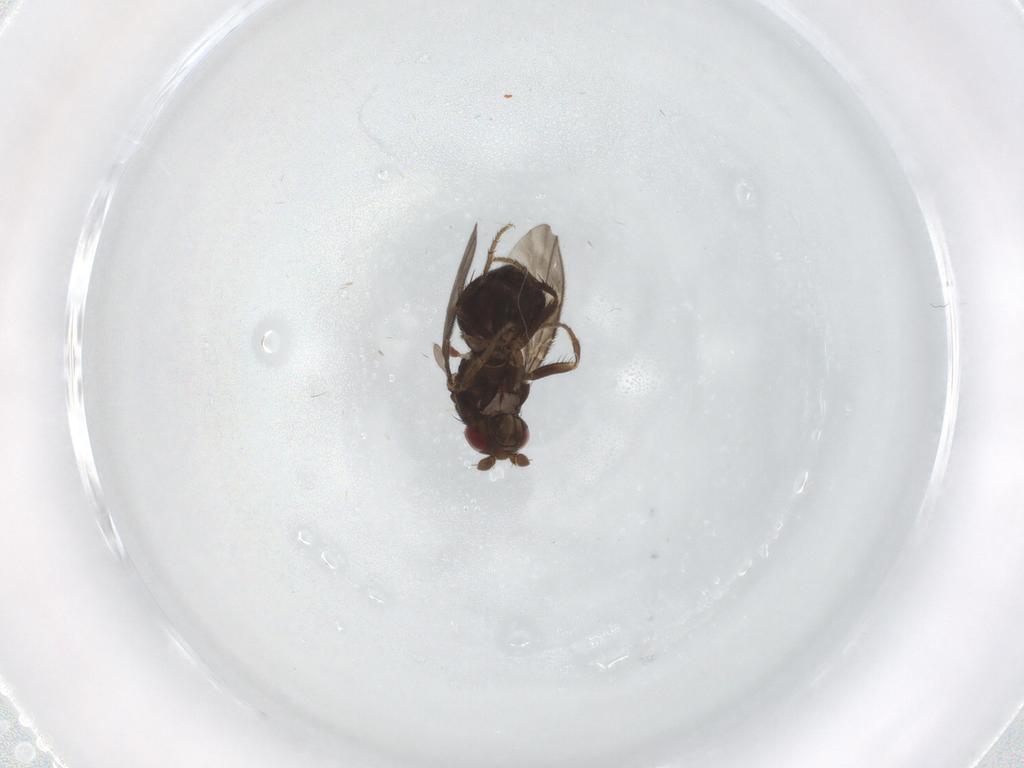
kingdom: Animalia
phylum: Arthropoda
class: Insecta
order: Diptera
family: Sphaeroceridae
